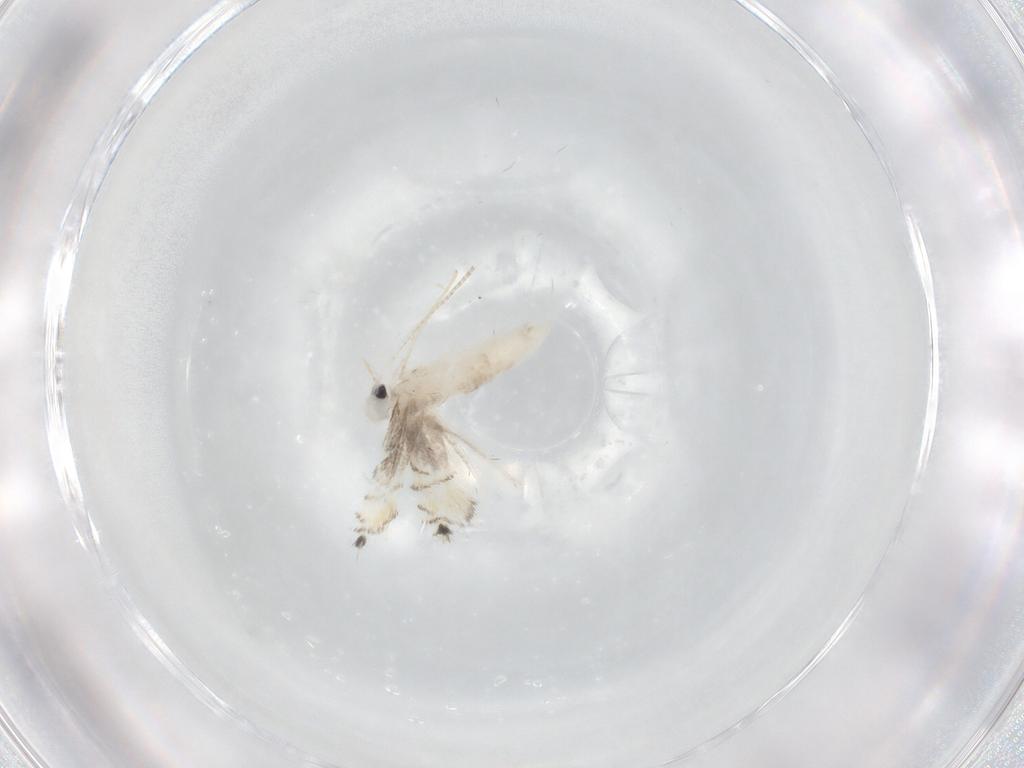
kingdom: Animalia
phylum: Arthropoda
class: Insecta
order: Lepidoptera
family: Gracillariidae
